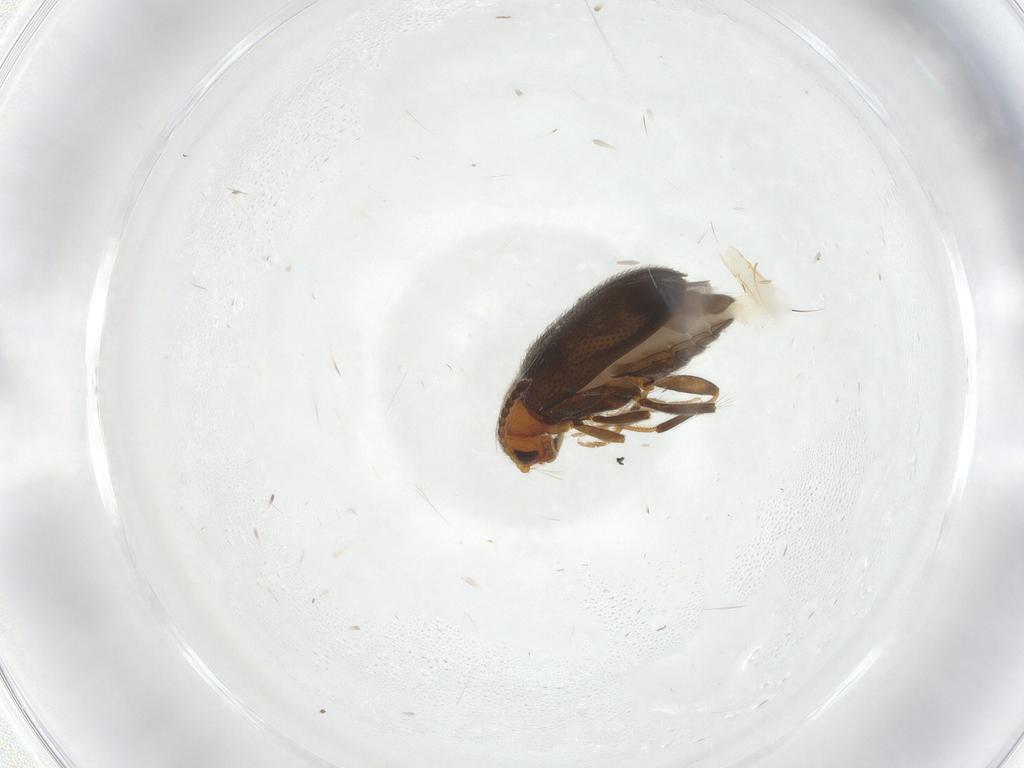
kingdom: Animalia
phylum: Arthropoda
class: Insecta
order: Coleoptera
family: Aderidae
